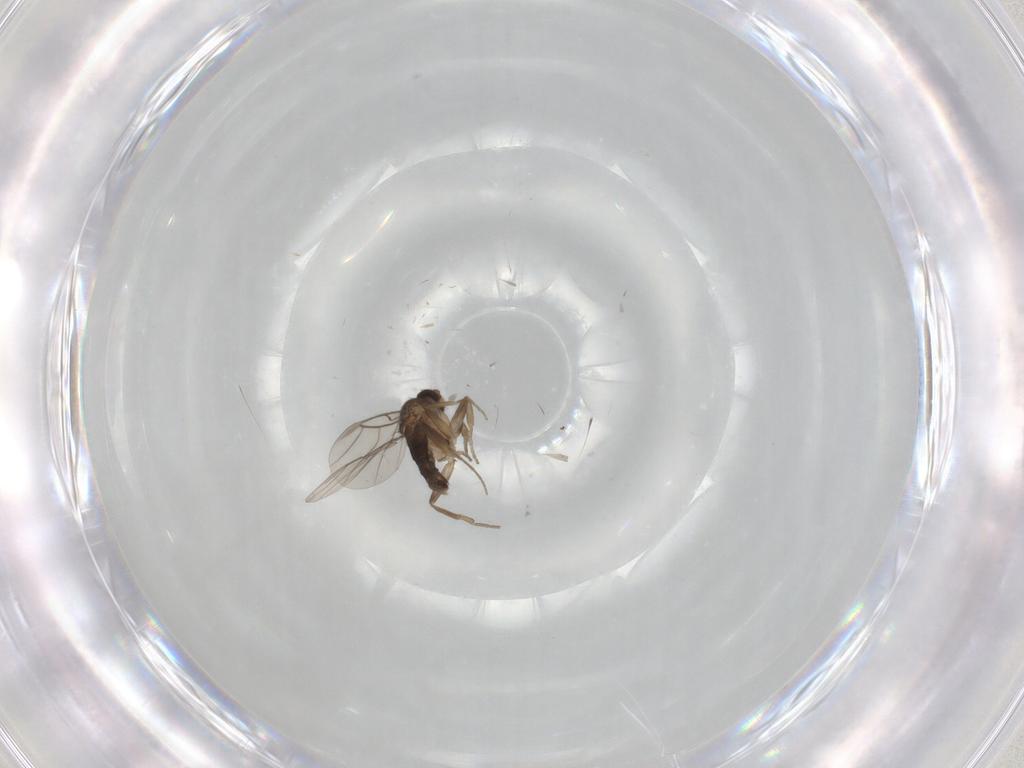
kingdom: Animalia
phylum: Arthropoda
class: Insecta
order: Diptera
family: Phoridae
